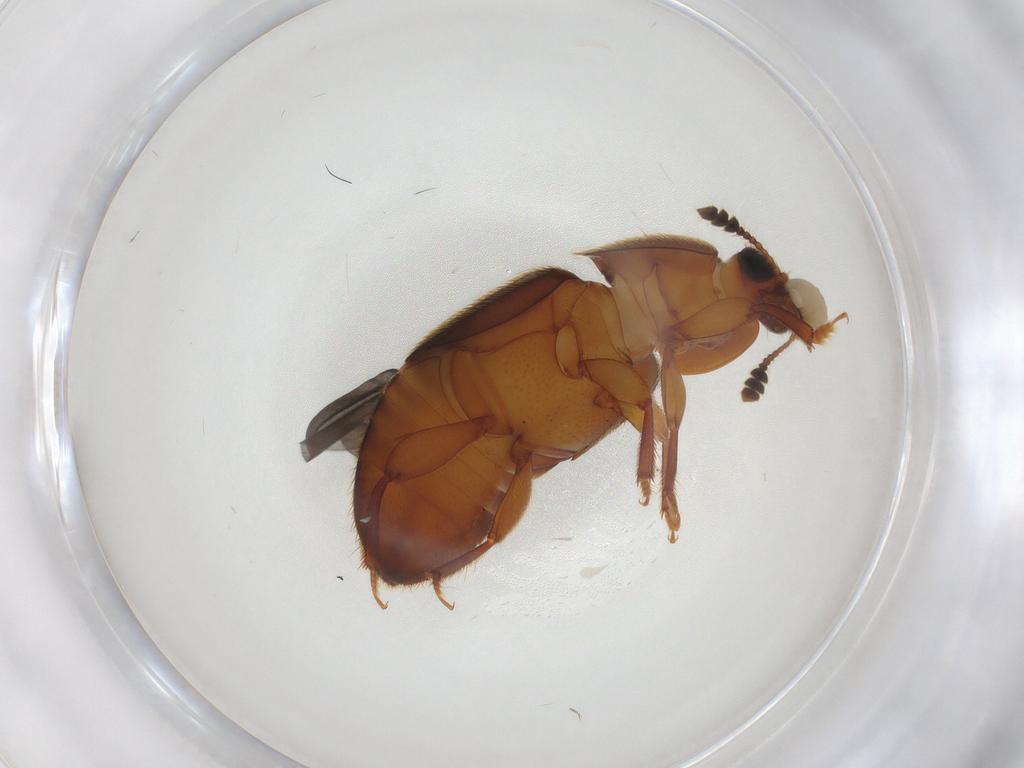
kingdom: Animalia
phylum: Arthropoda
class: Insecta
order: Coleoptera
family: Nitidulidae
